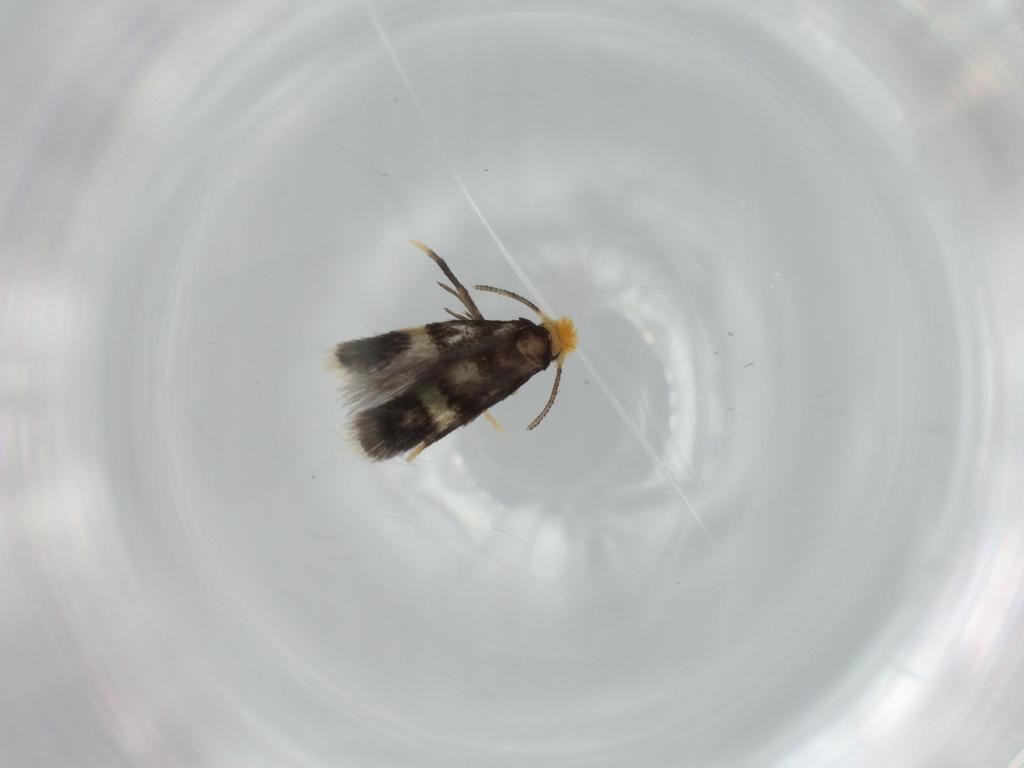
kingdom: Animalia
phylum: Arthropoda
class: Insecta
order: Lepidoptera
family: Nepticulidae
